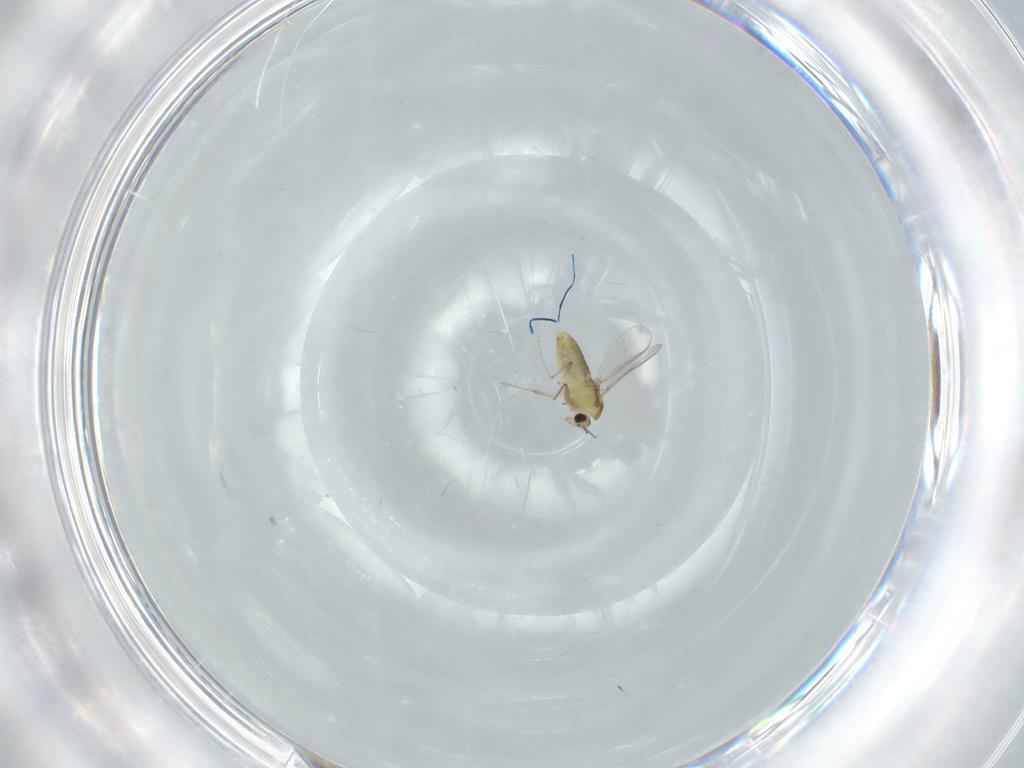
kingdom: Animalia
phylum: Arthropoda
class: Insecta
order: Diptera
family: Chironomidae
